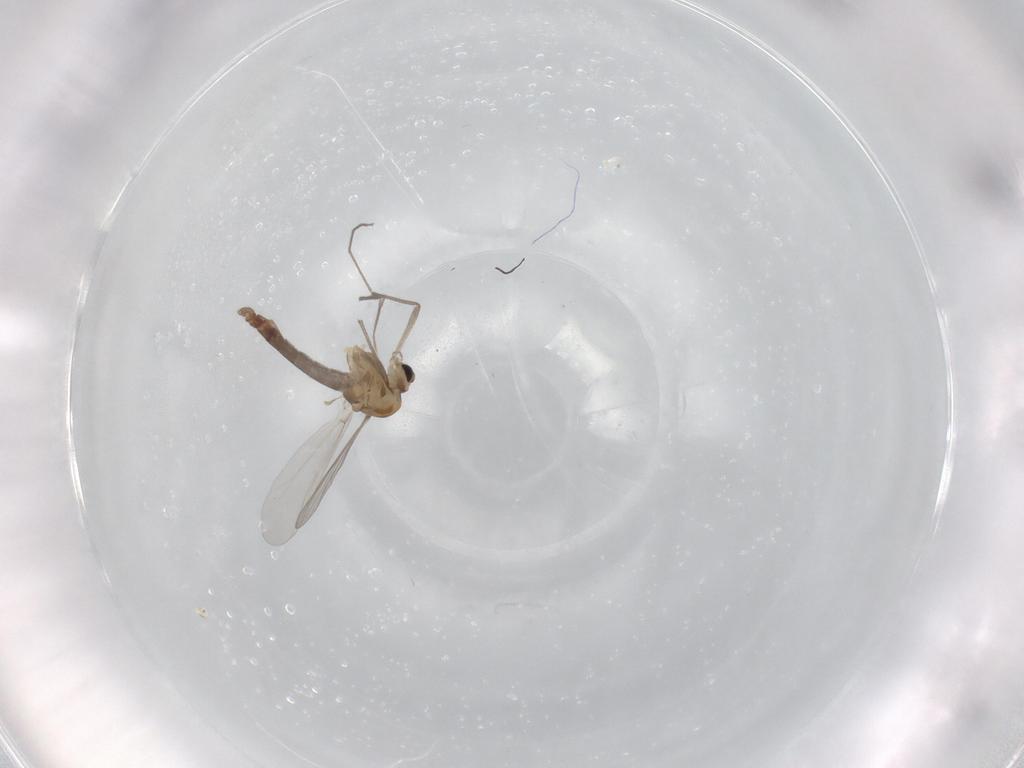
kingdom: Animalia
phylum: Arthropoda
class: Insecta
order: Diptera
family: Chironomidae
